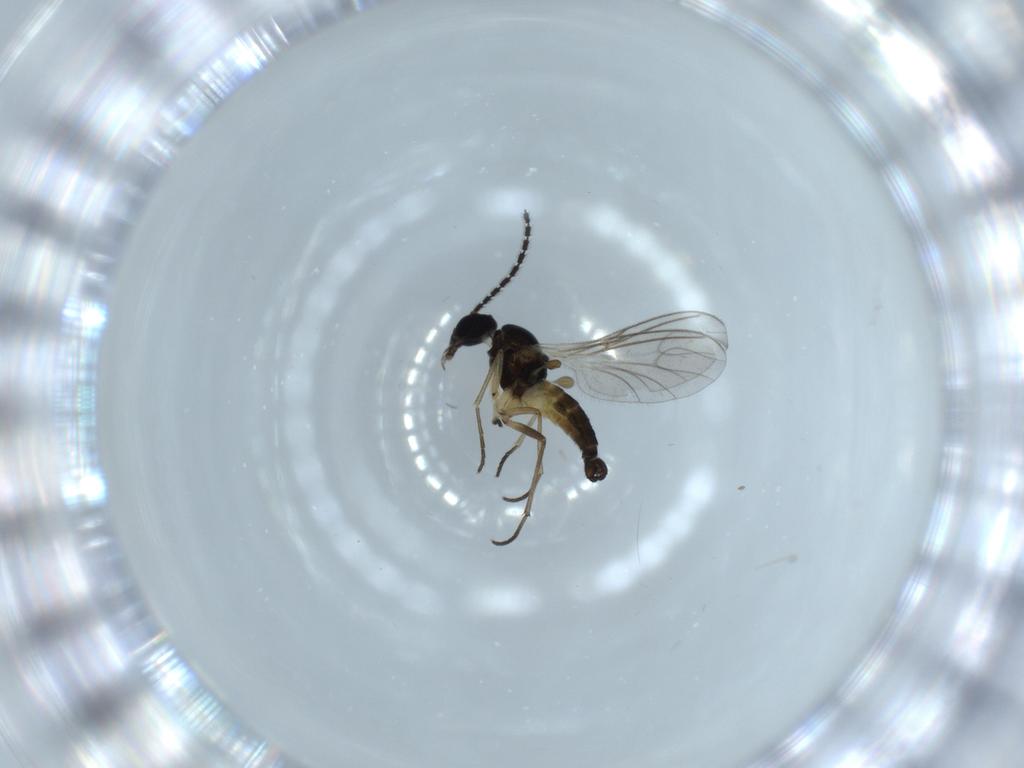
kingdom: Animalia
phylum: Arthropoda
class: Insecta
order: Diptera
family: Sciaridae
